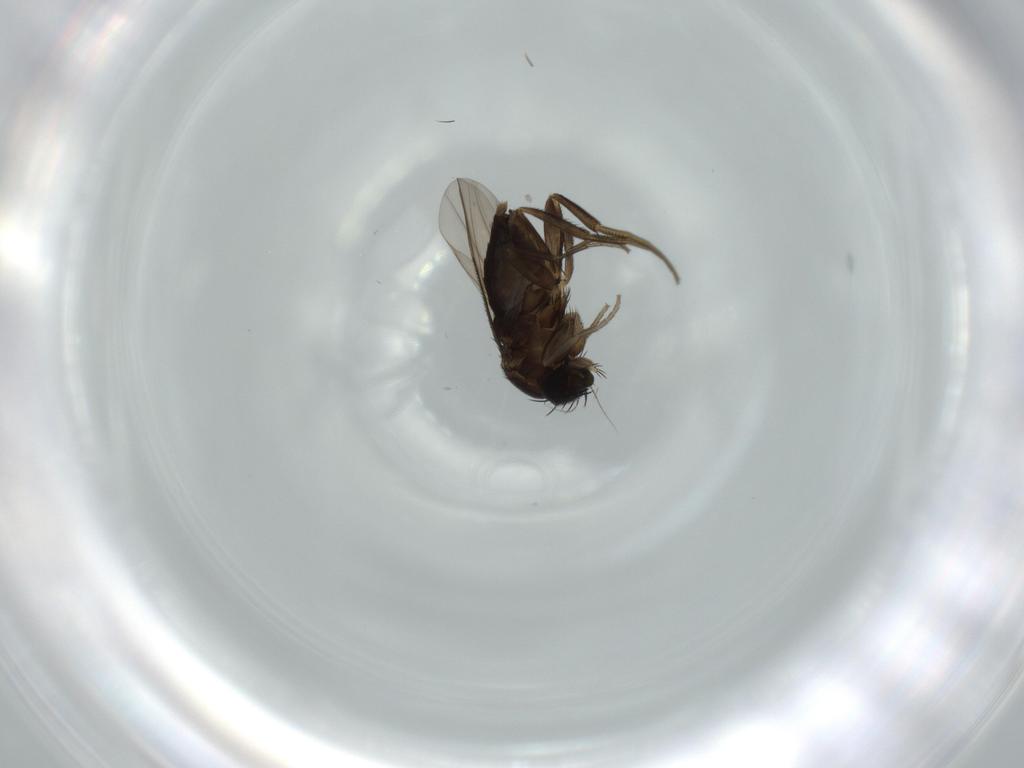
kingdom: Animalia
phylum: Arthropoda
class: Insecta
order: Diptera
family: Phoridae
